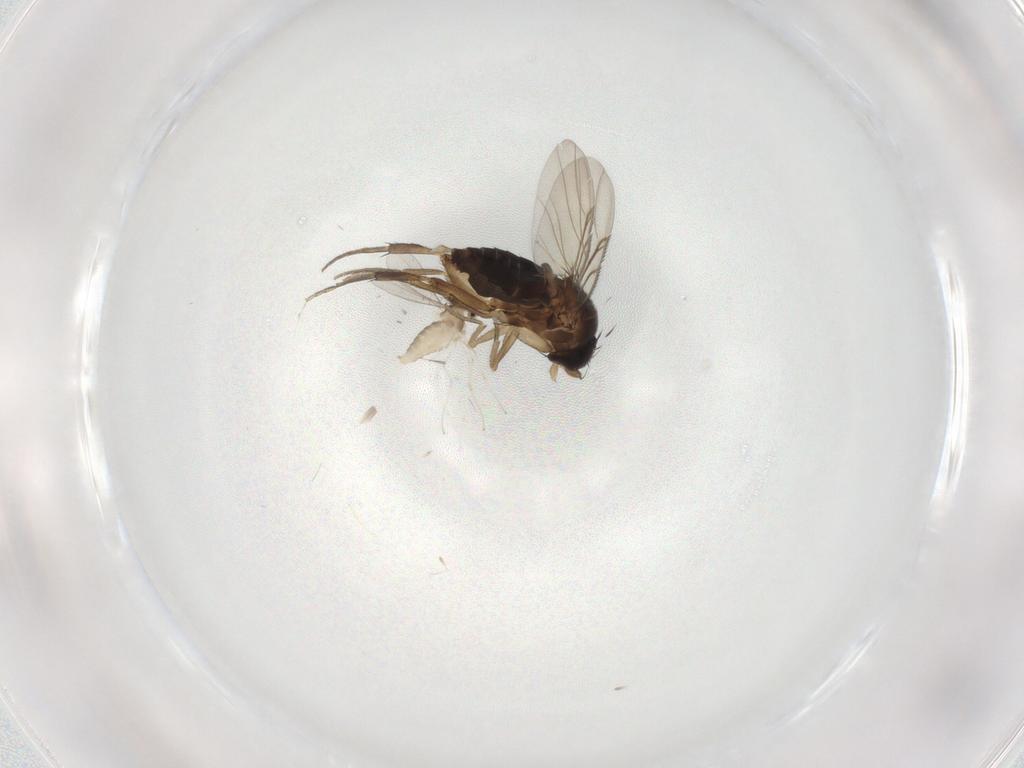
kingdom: Animalia
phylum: Arthropoda
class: Insecta
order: Diptera
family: Cecidomyiidae
